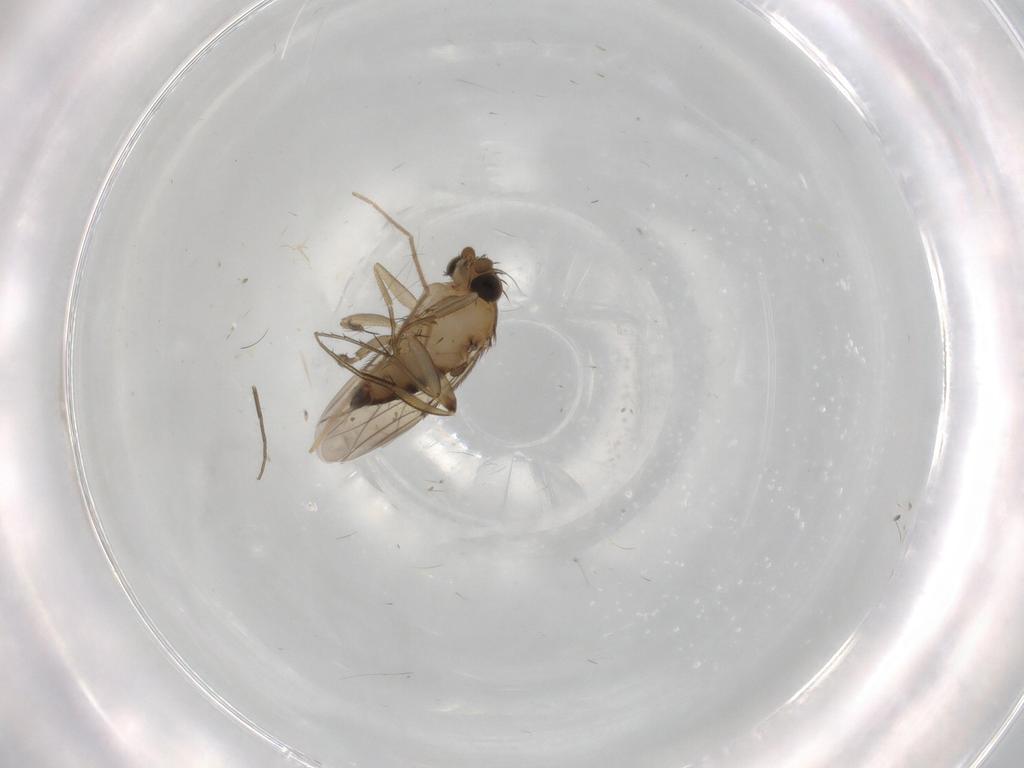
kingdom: Animalia
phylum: Arthropoda
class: Insecta
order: Diptera
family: Phoridae
